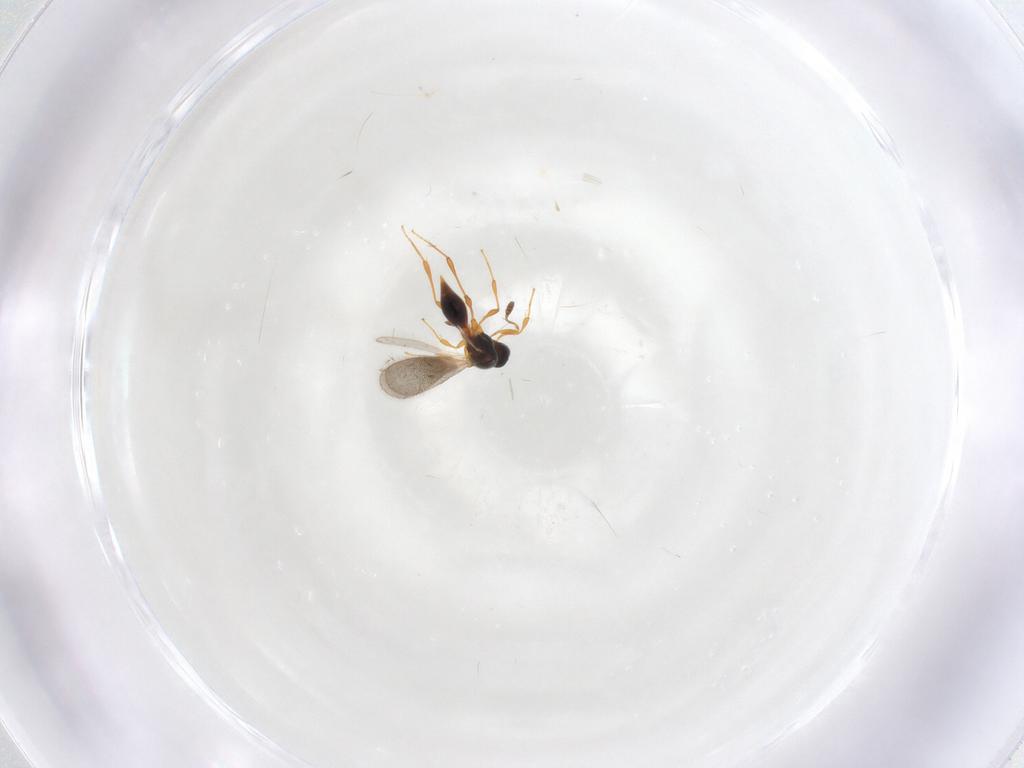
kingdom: Animalia
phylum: Arthropoda
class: Insecta
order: Hymenoptera
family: Platygastridae
